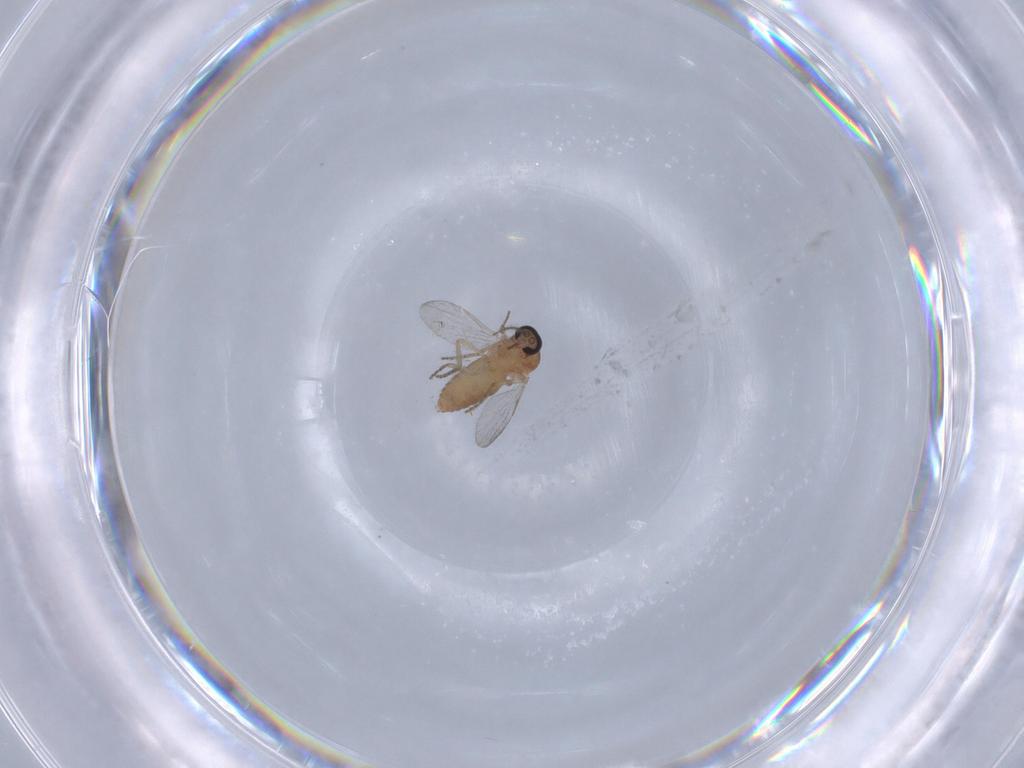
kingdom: Animalia
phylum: Arthropoda
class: Insecta
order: Diptera
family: Ceratopogonidae
